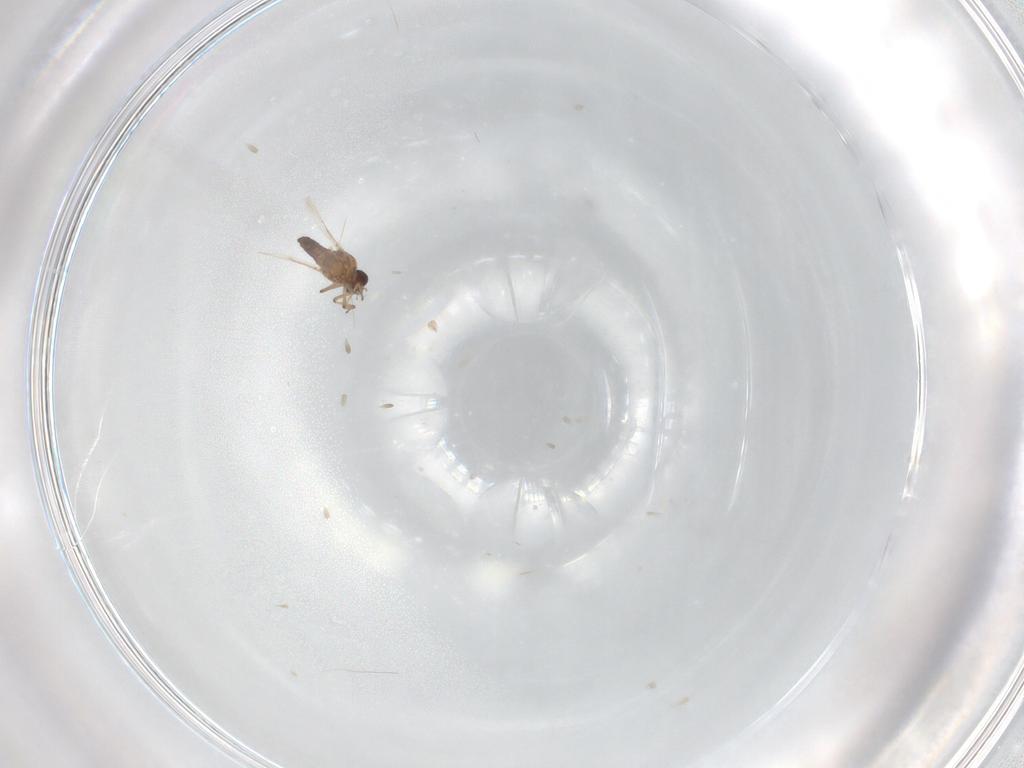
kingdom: Animalia
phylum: Arthropoda
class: Insecta
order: Diptera
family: Ceratopogonidae
